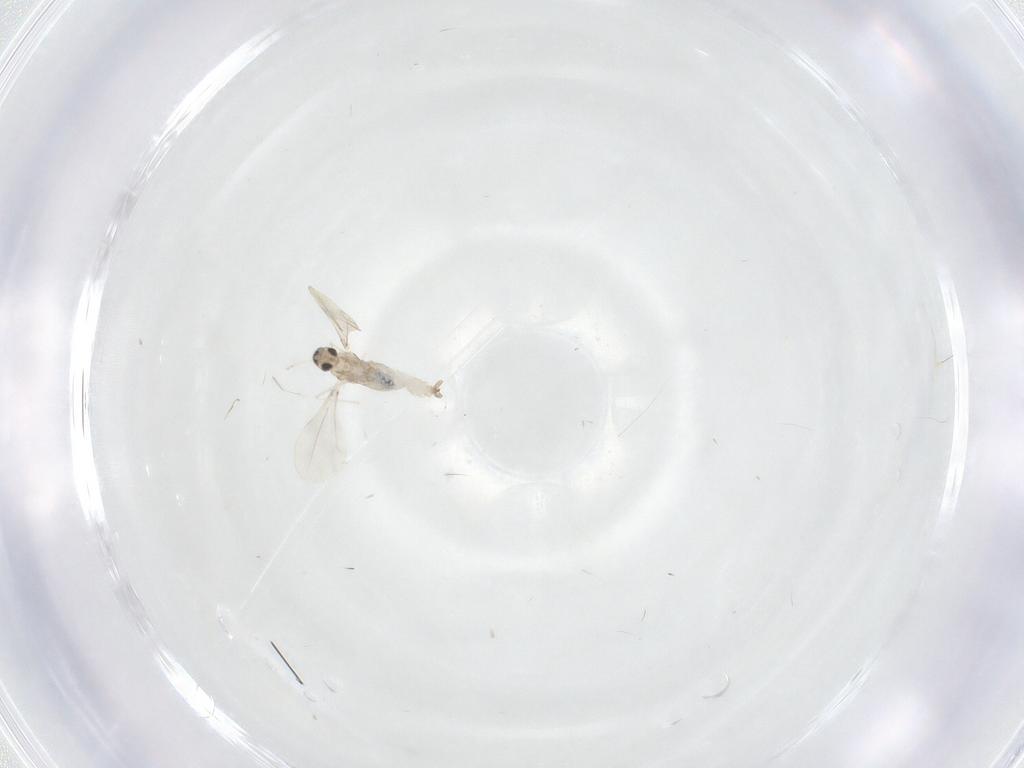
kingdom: Animalia
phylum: Arthropoda
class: Insecta
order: Diptera
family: Cecidomyiidae
